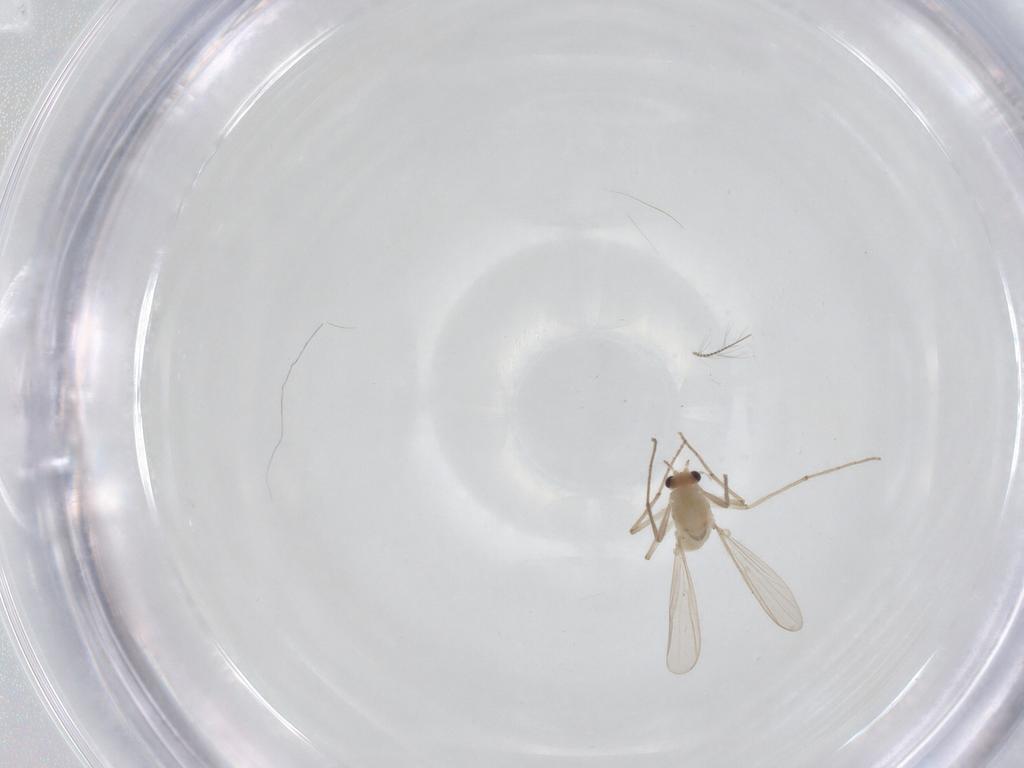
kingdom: Animalia
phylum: Arthropoda
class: Insecta
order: Diptera
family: Chironomidae
